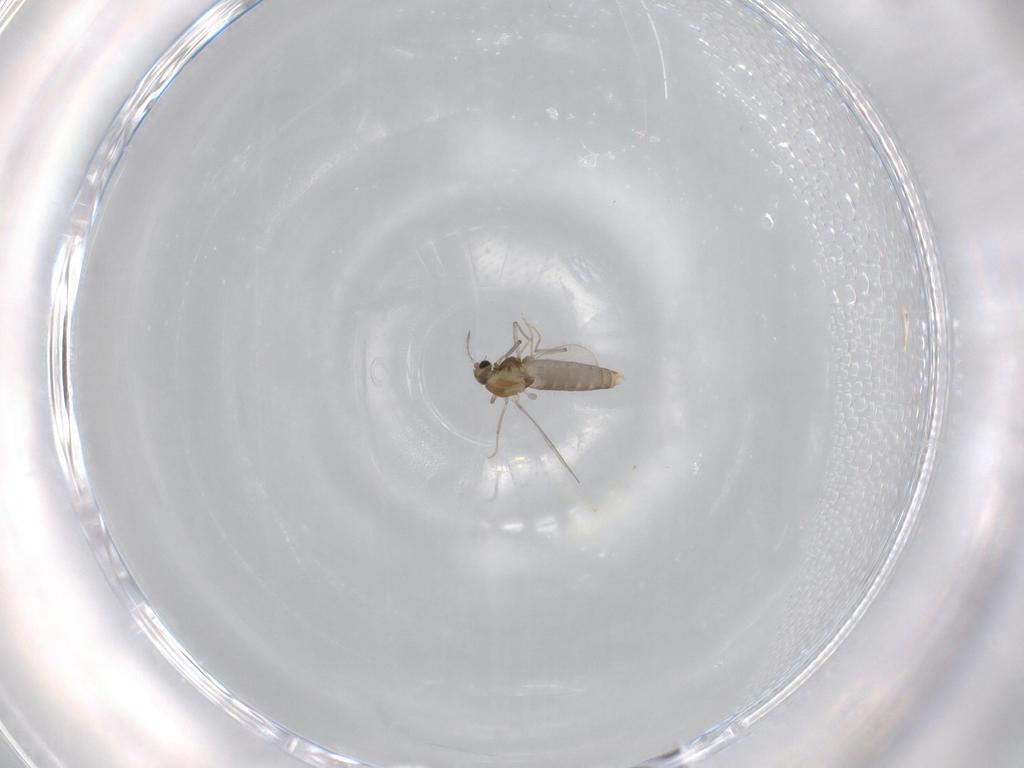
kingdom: Animalia
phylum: Arthropoda
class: Insecta
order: Diptera
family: Chironomidae
